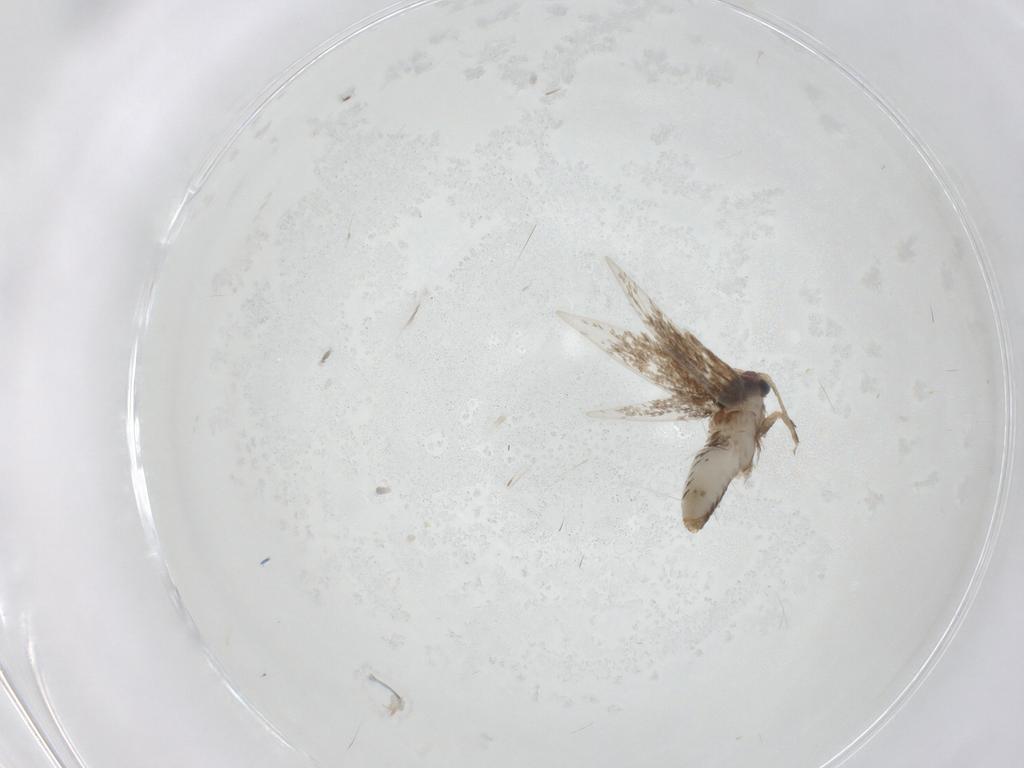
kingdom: Animalia
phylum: Arthropoda
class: Insecta
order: Lepidoptera
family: Nepticulidae
